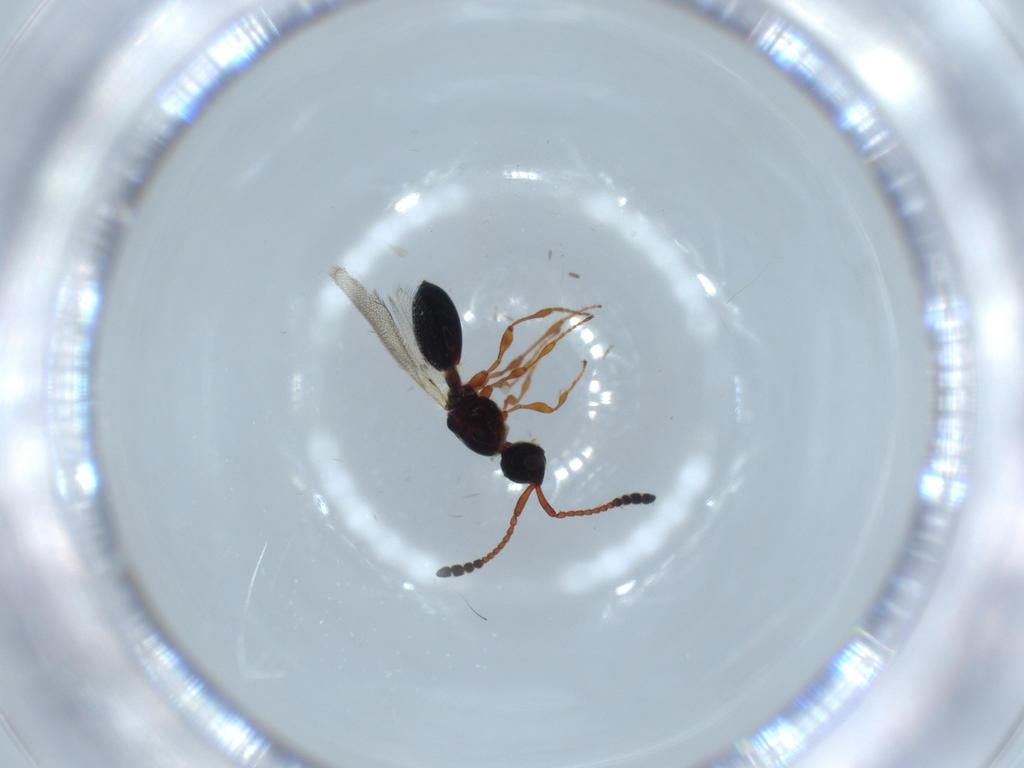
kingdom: Animalia
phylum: Arthropoda
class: Insecta
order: Hymenoptera
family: Diapriidae
